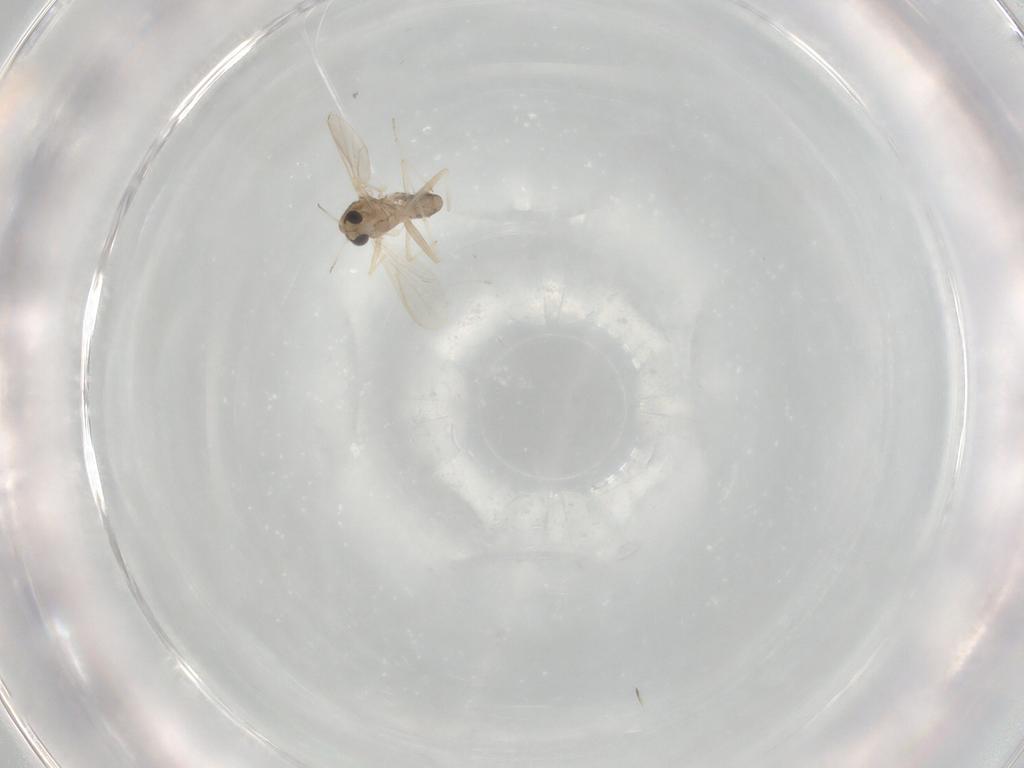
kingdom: Animalia
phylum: Arthropoda
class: Insecta
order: Diptera
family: Chironomidae
